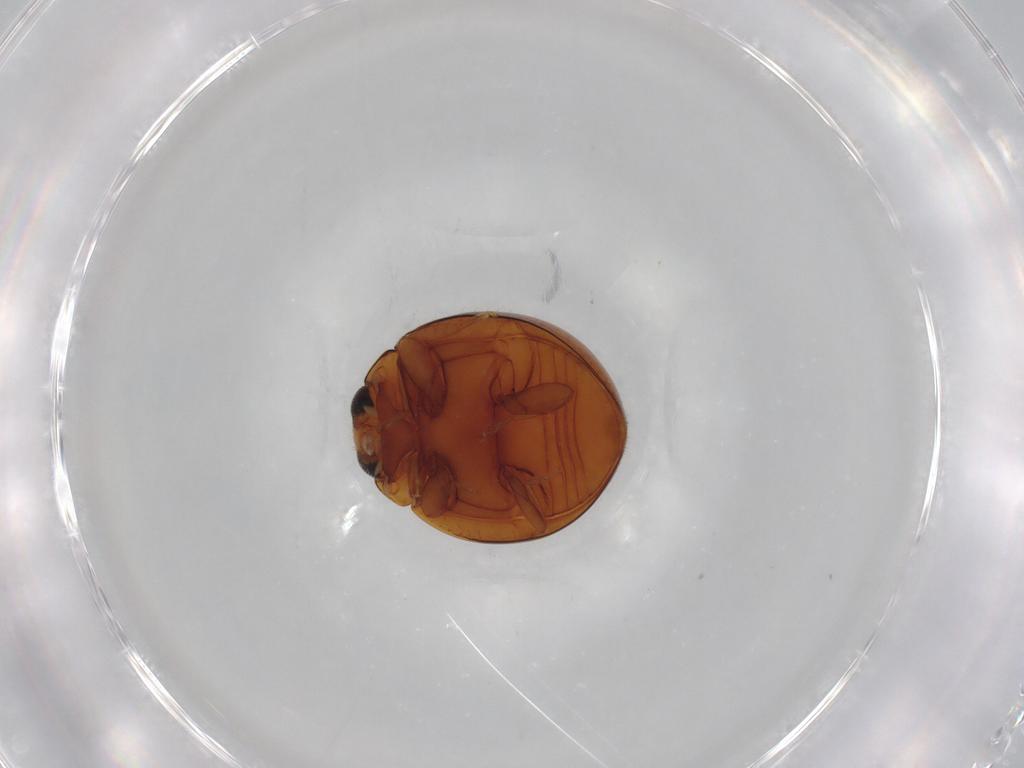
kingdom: Animalia
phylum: Arthropoda
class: Insecta
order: Coleoptera
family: Coccinellidae
